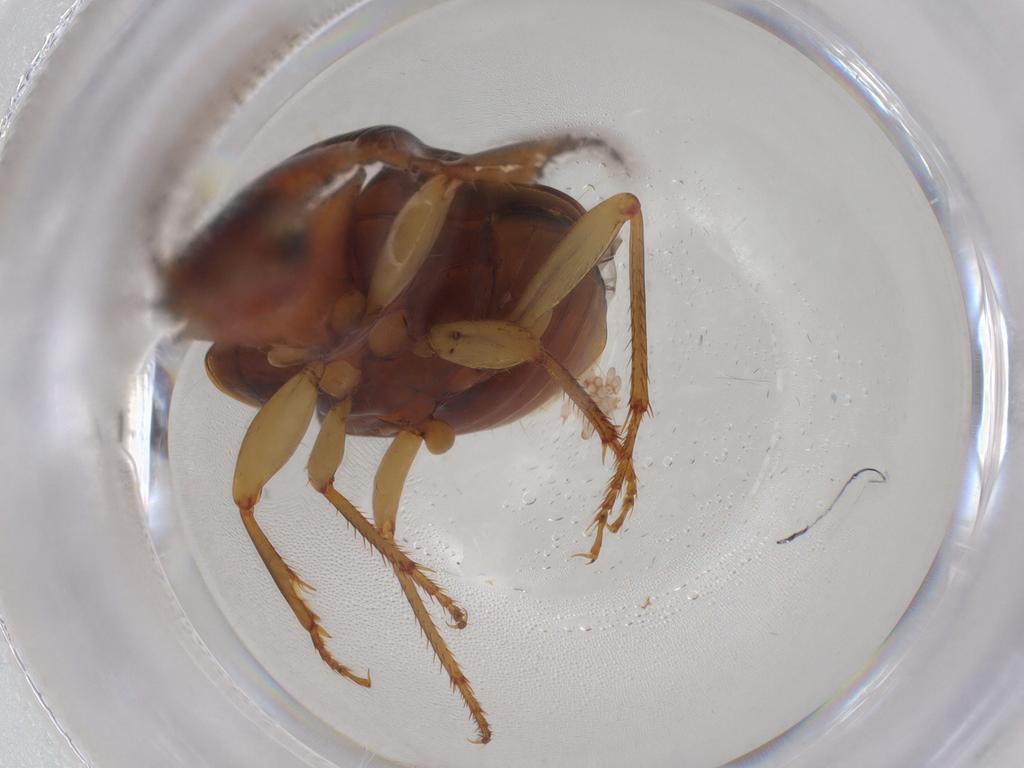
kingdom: Animalia
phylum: Arthropoda
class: Insecta
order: Coleoptera
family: Carabidae
